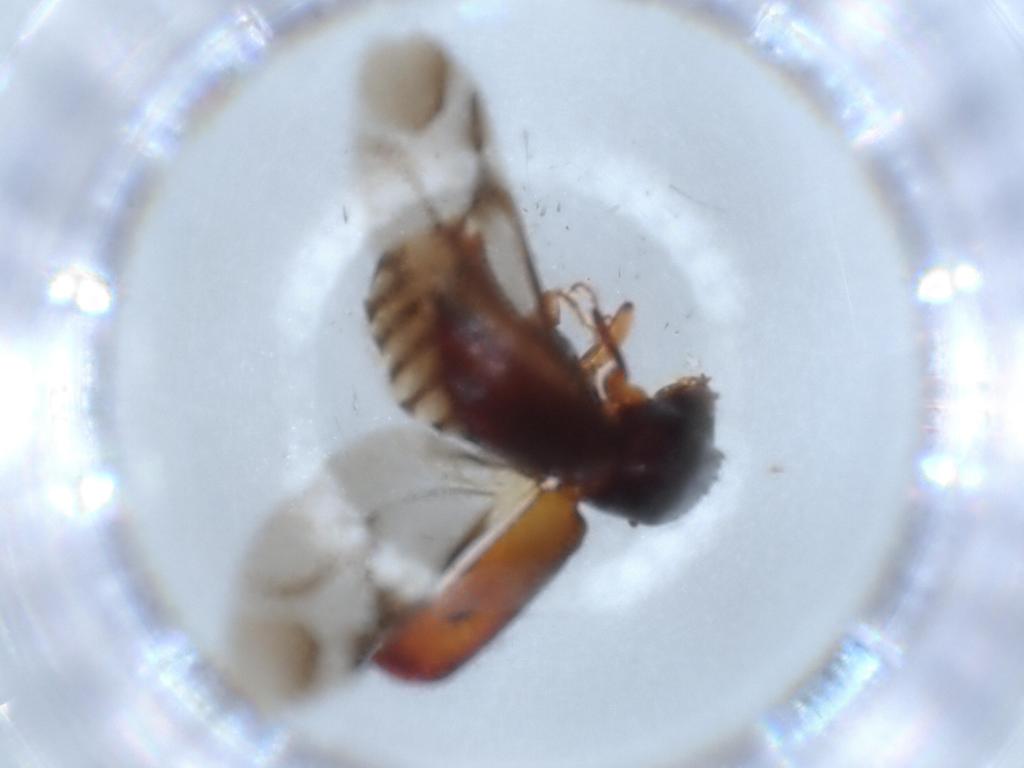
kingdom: Animalia
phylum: Arthropoda
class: Insecta
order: Coleoptera
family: Bostrichidae
